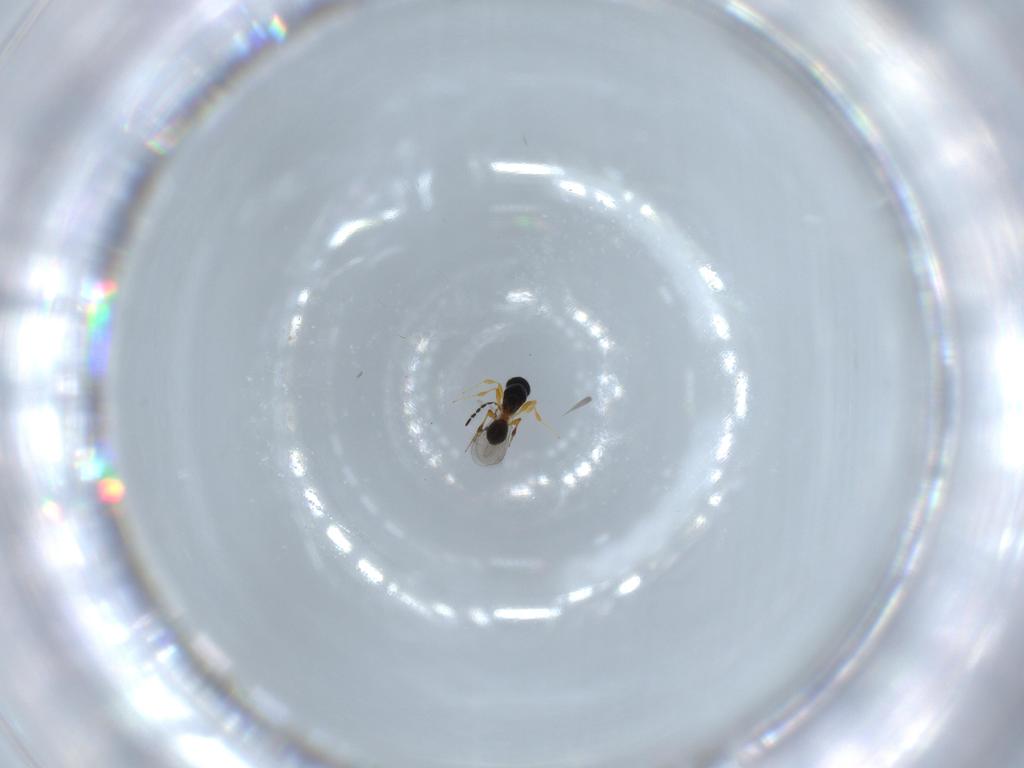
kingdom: Animalia
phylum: Arthropoda
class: Insecta
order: Hymenoptera
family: Platygastridae
